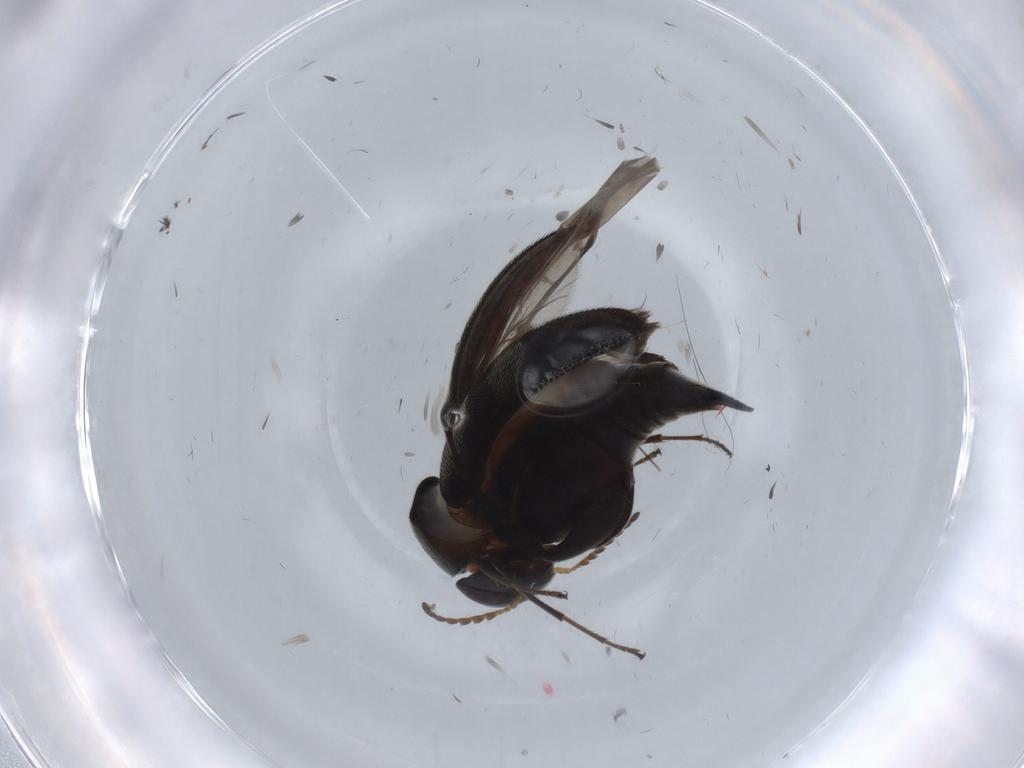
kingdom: Animalia
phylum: Arthropoda
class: Insecta
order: Coleoptera
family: Mordellidae
